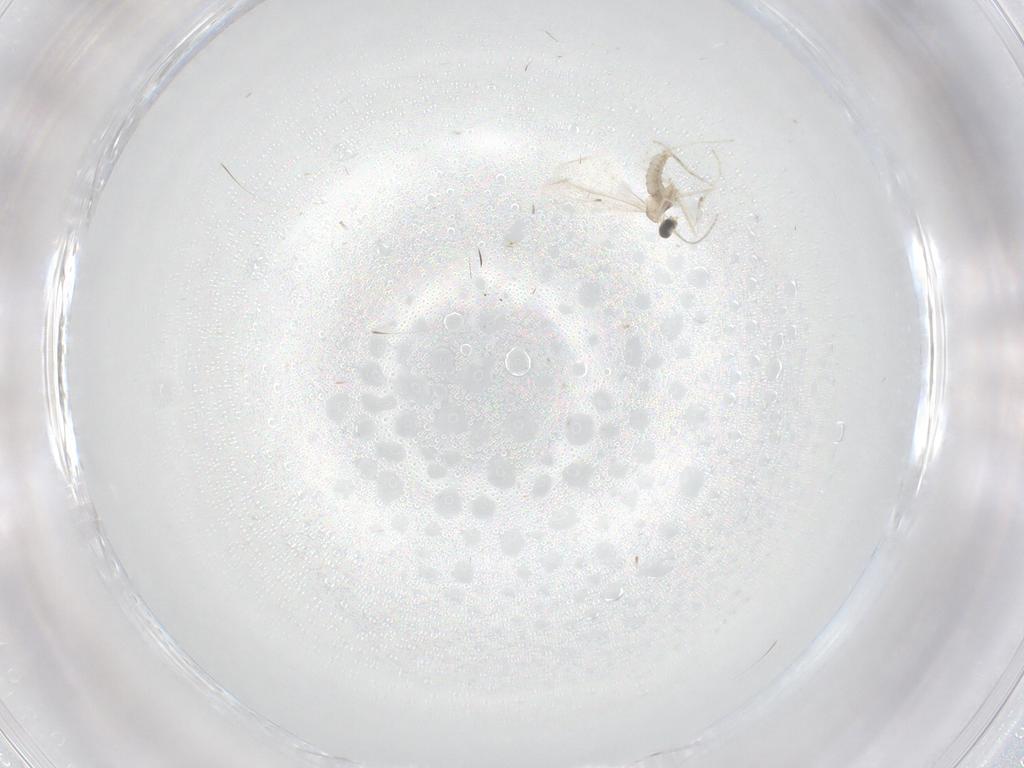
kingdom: Animalia
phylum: Arthropoda
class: Insecta
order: Diptera
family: Cecidomyiidae
